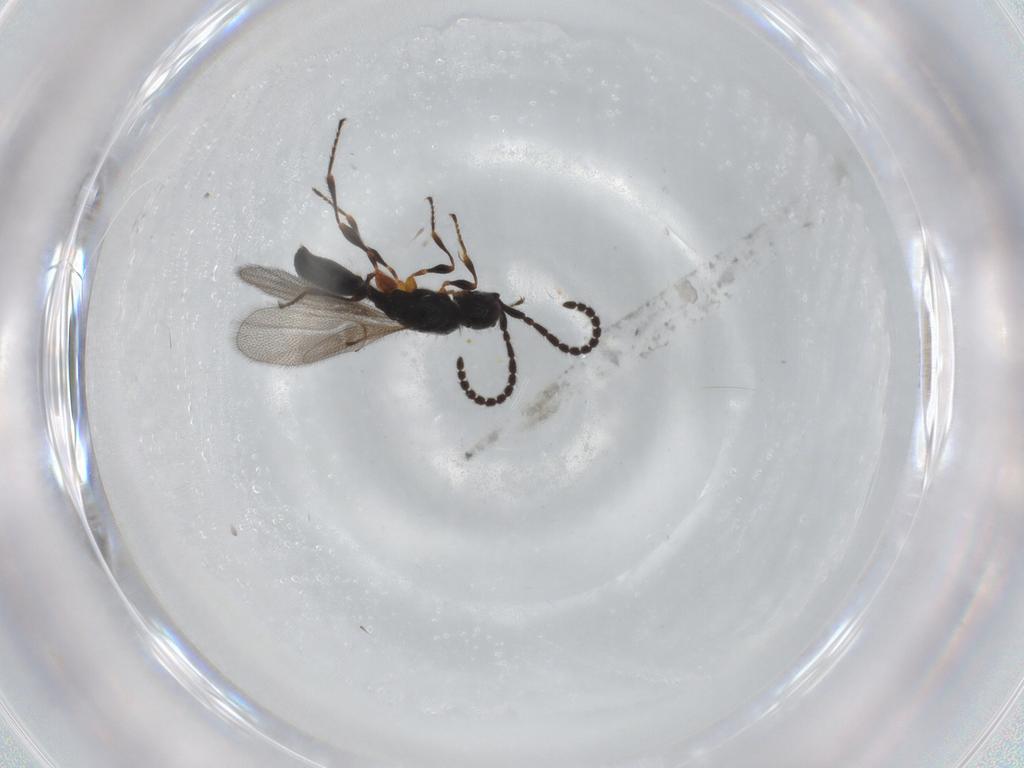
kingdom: Animalia
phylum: Arthropoda
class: Insecta
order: Hymenoptera
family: Diapriidae
